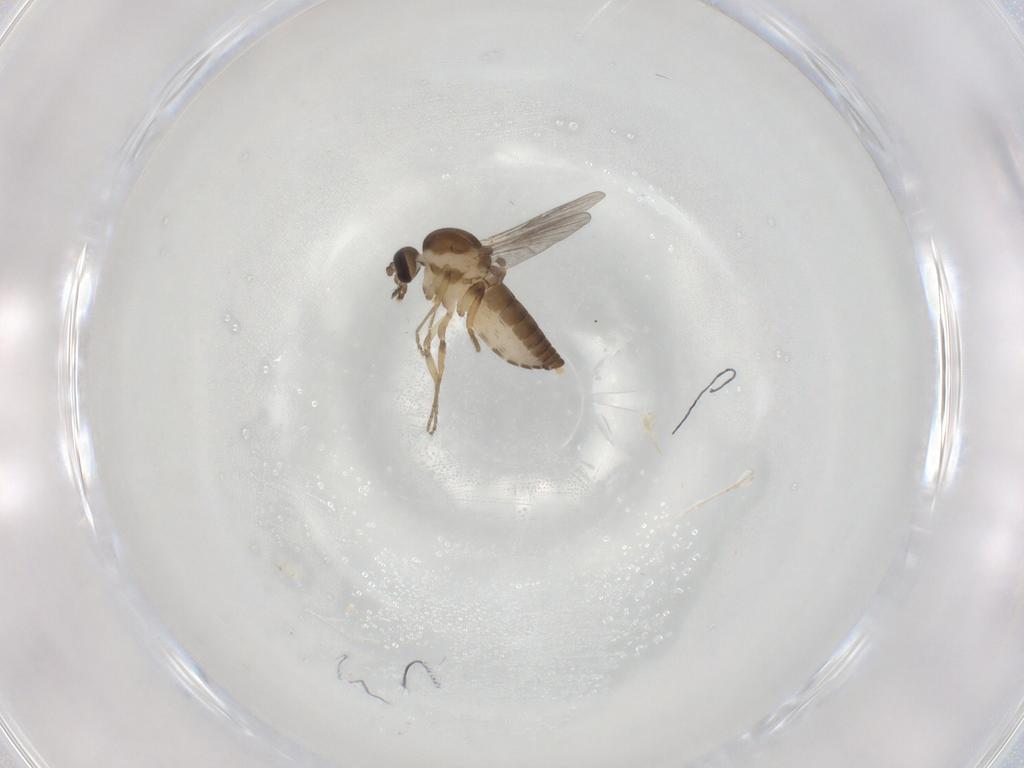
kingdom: Animalia
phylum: Arthropoda
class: Insecta
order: Diptera
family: Ceratopogonidae
